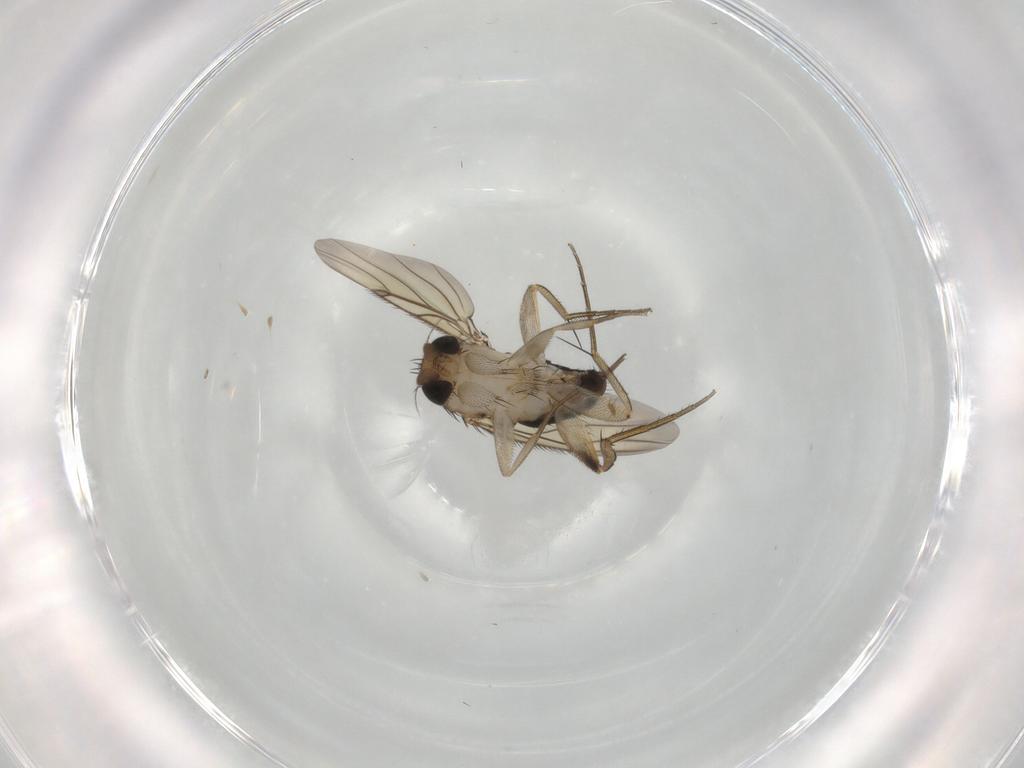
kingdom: Animalia
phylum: Arthropoda
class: Insecta
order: Diptera
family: Phoridae
